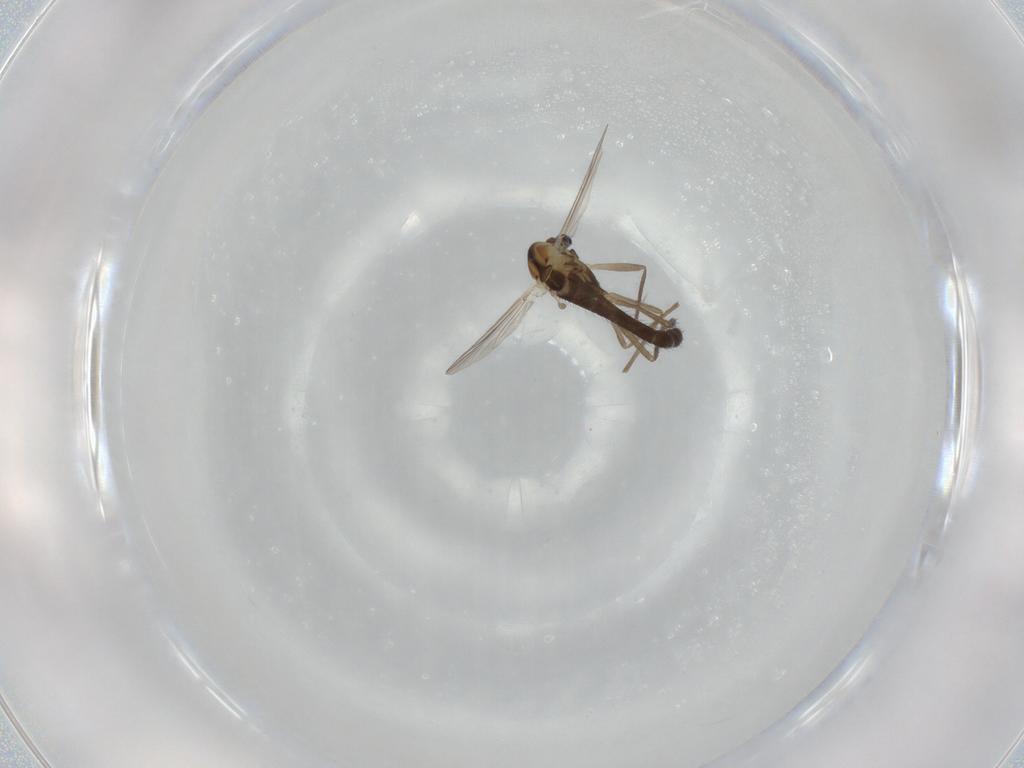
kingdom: Animalia
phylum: Arthropoda
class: Insecta
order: Diptera
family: Chironomidae
